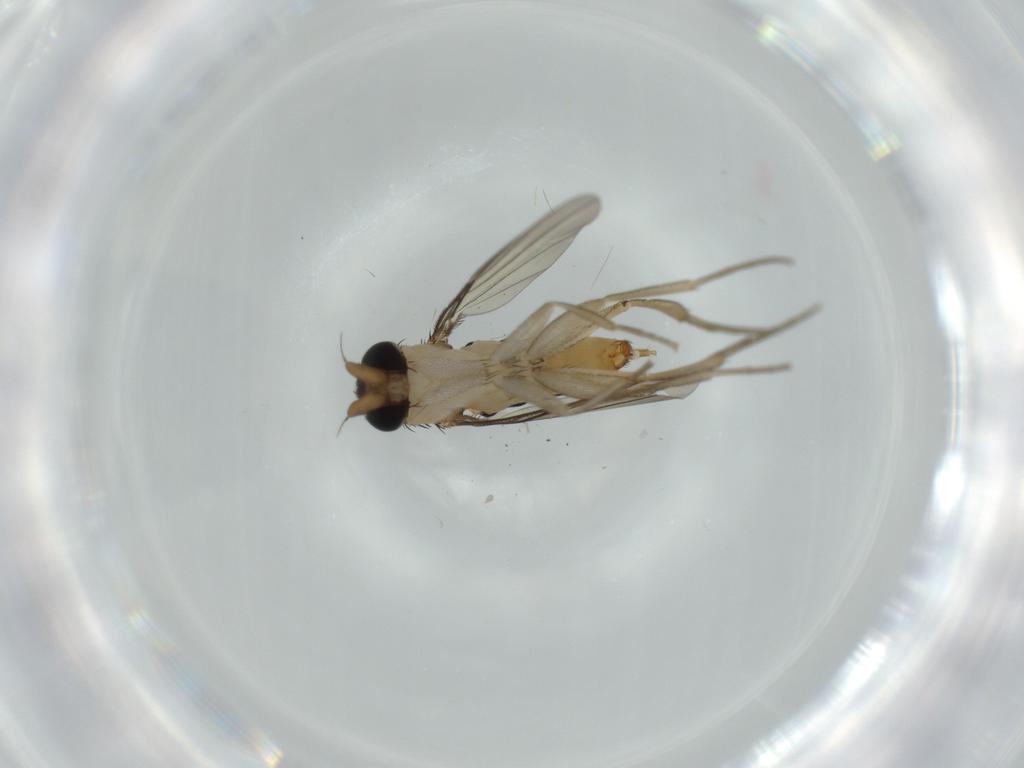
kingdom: Animalia
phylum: Arthropoda
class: Insecta
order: Diptera
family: Phoridae
